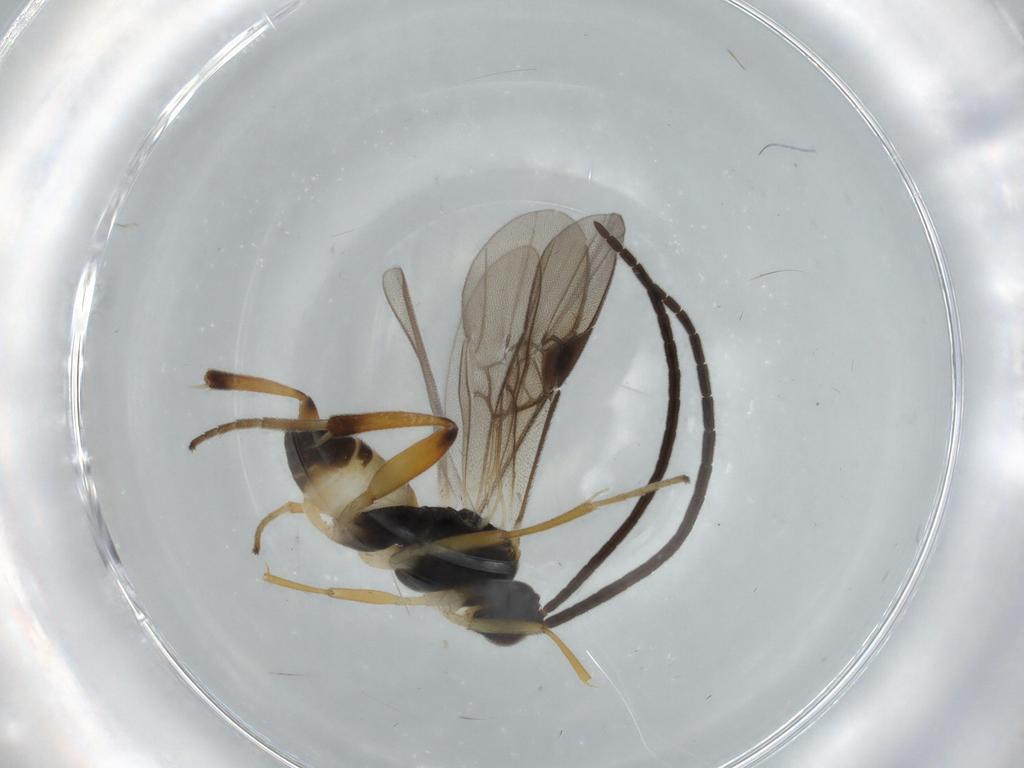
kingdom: Animalia
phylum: Arthropoda
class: Insecta
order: Hymenoptera
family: Braconidae
